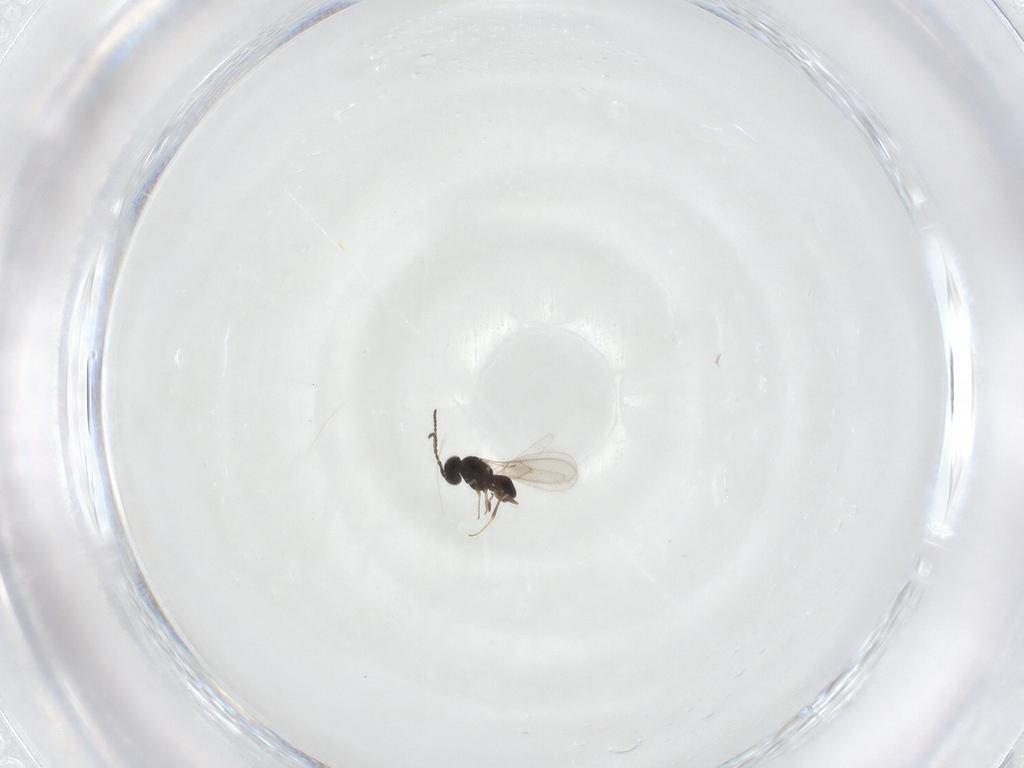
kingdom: Animalia
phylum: Arthropoda
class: Insecta
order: Hymenoptera
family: Scelionidae
